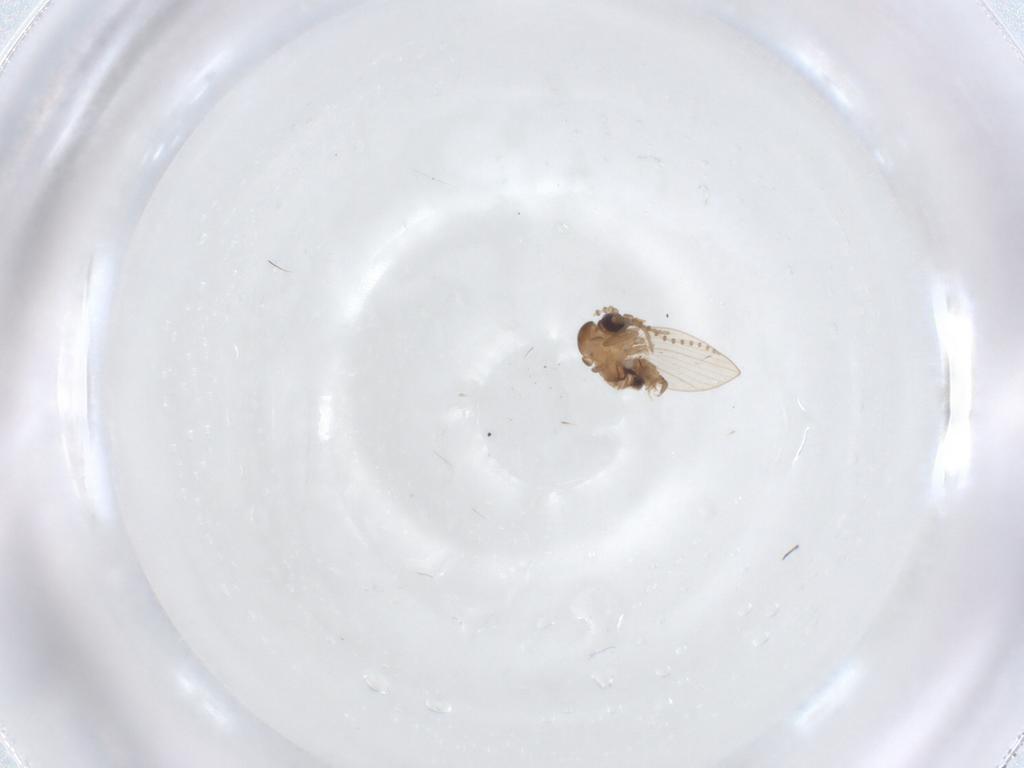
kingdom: Animalia
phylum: Arthropoda
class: Insecta
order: Diptera
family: Psychodidae
